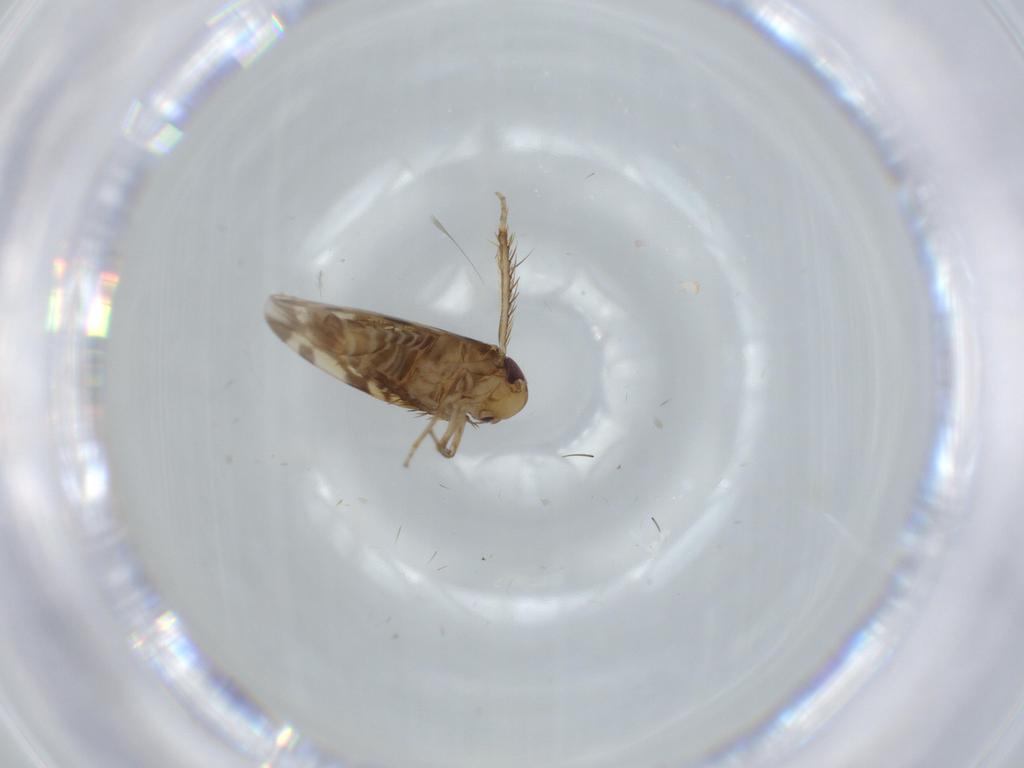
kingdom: Animalia
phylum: Arthropoda
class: Insecta
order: Hemiptera
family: Cicadellidae
